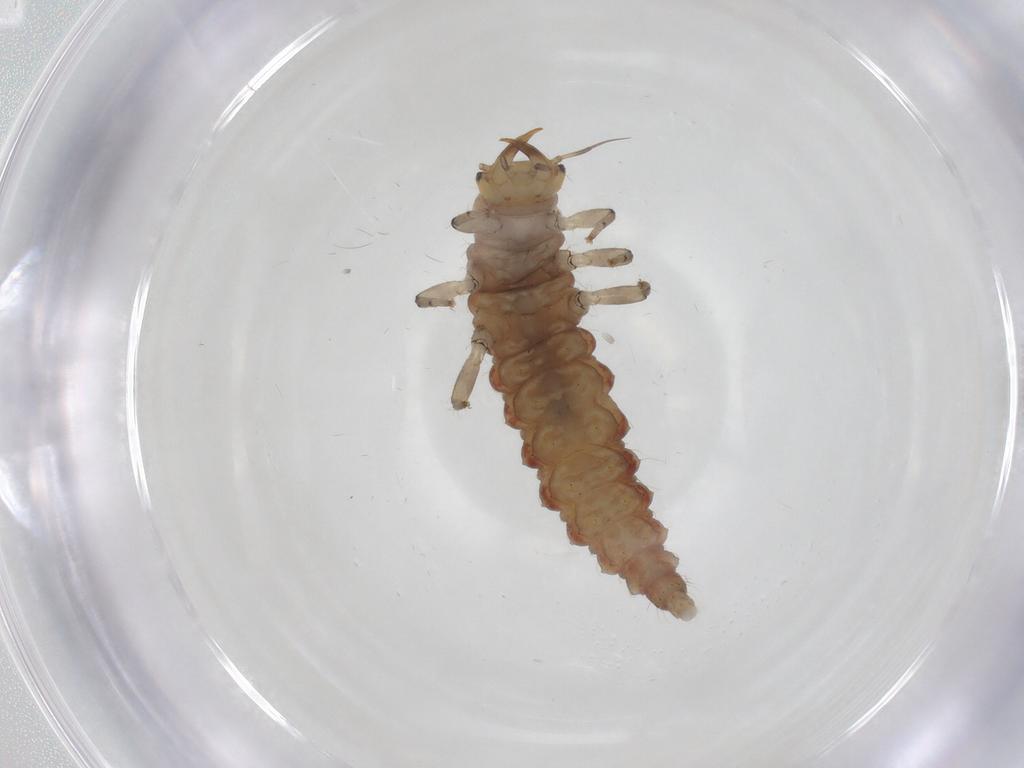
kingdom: Animalia
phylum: Arthropoda
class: Insecta
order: Neuroptera
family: Hemerobiidae
